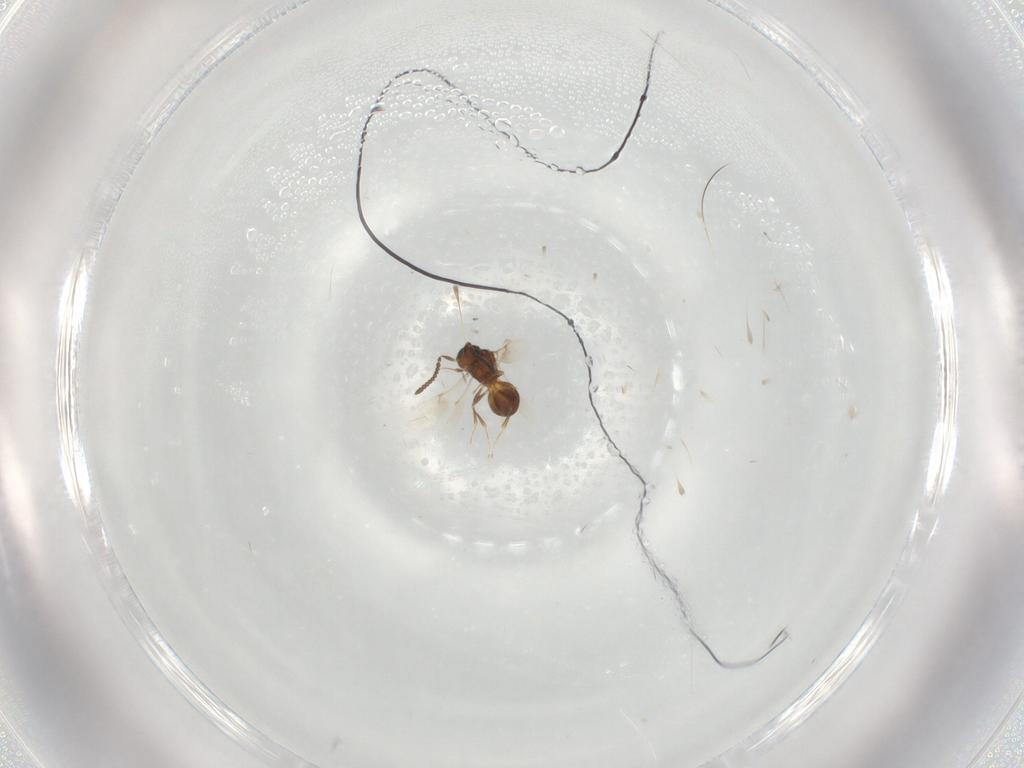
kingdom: Animalia
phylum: Arthropoda
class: Insecta
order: Hymenoptera
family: Scelionidae
